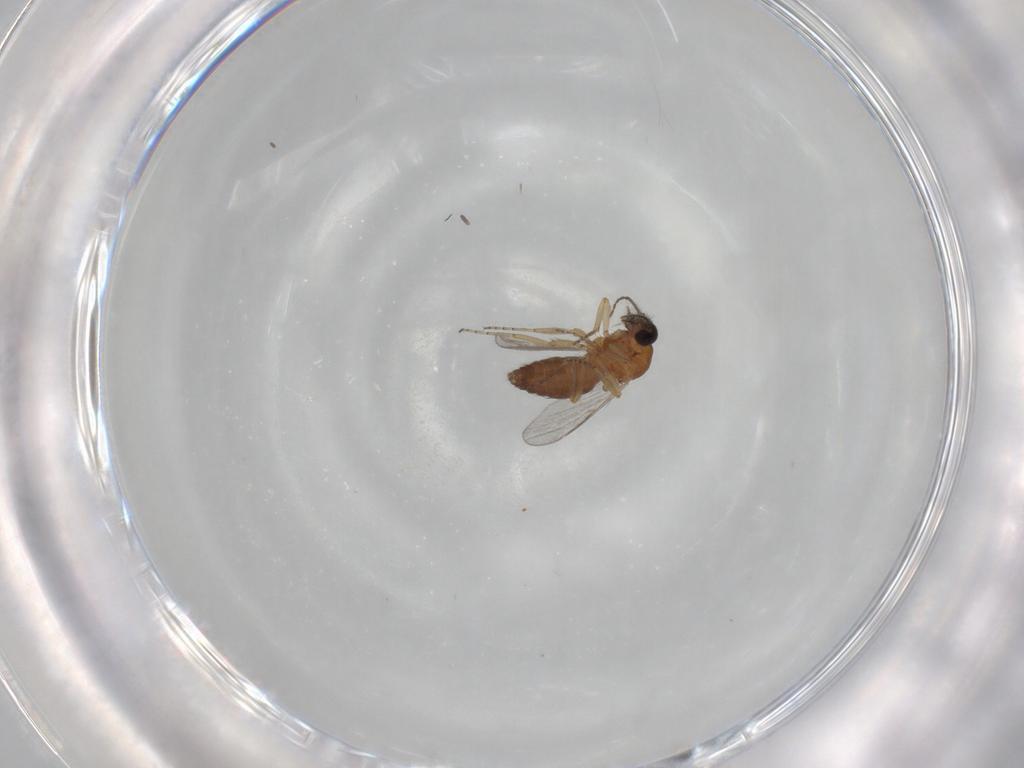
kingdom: Animalia
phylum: Arthropoda
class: Insecta
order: Diptera
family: Ceratopogonidae
